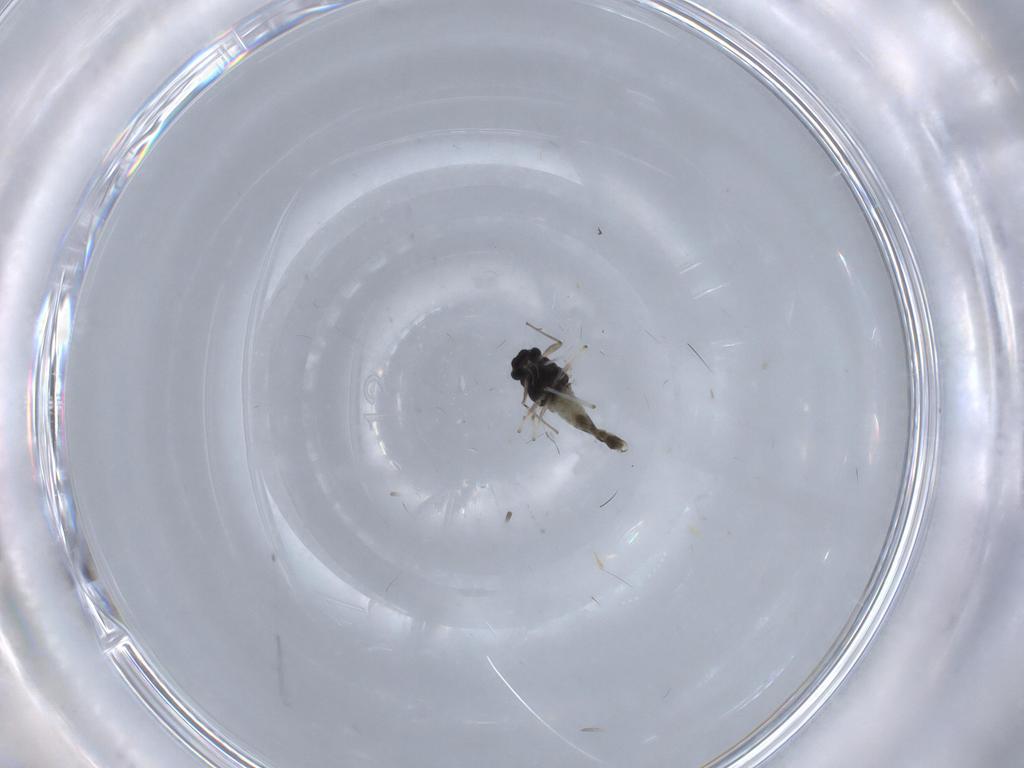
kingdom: Animalia
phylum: Arthropoda
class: Insecta
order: Diptera
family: Chironomidae
